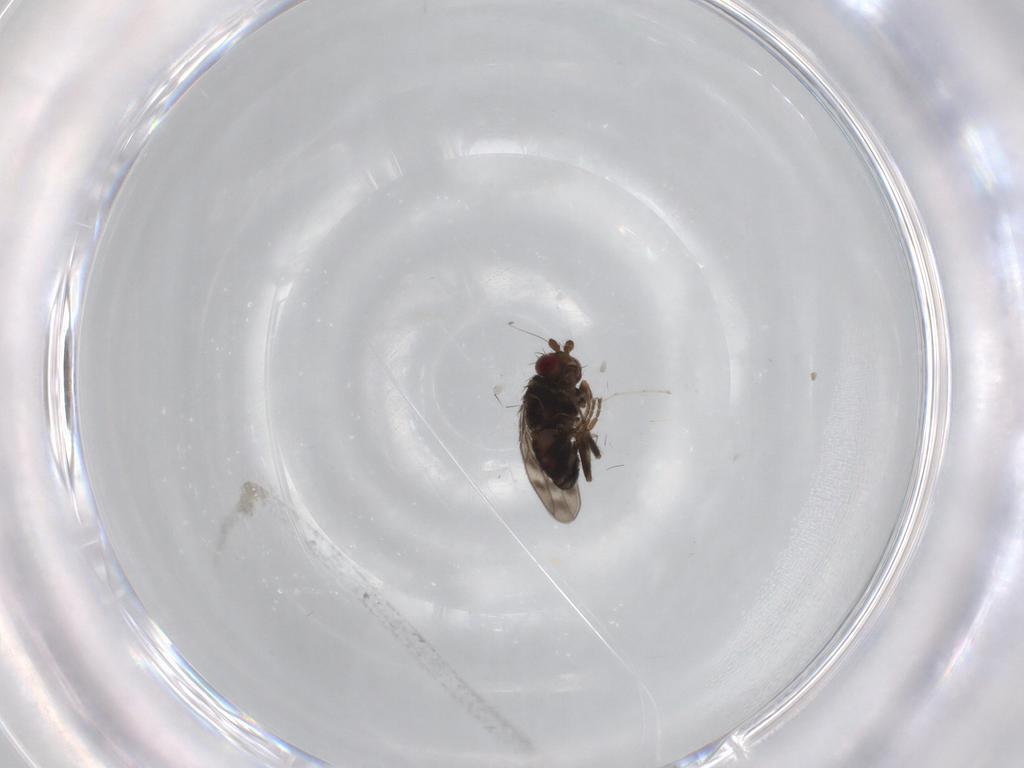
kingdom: Animalia
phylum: Arthropoda
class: Insecta
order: Diptera
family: Sphaeroceridae
